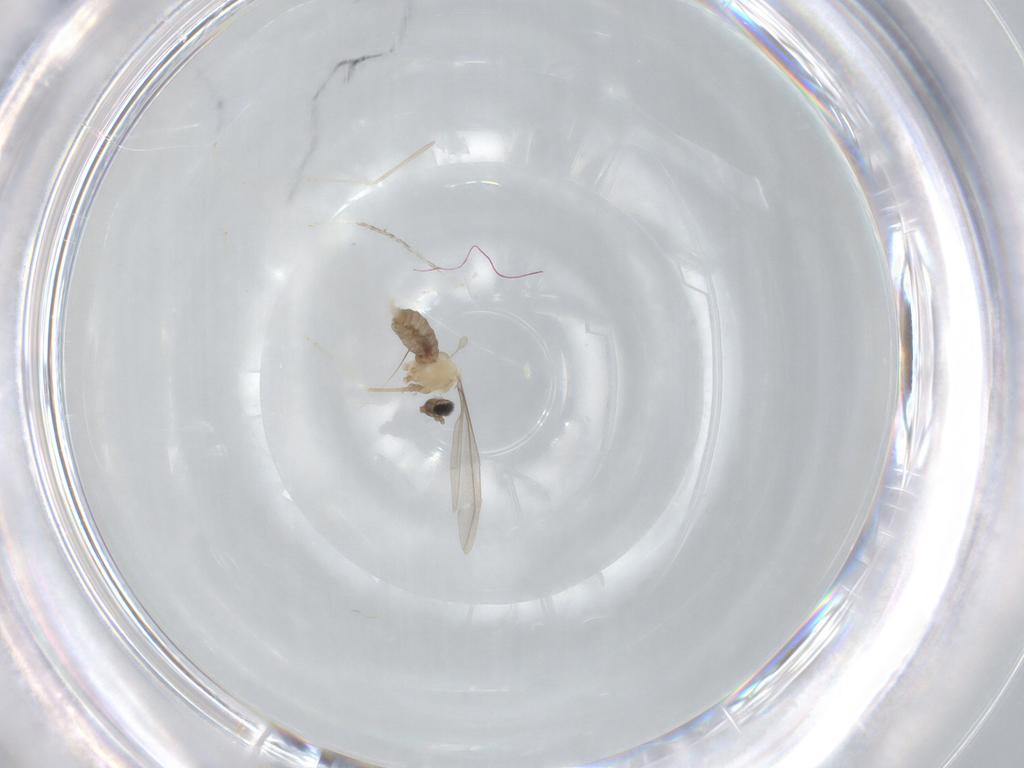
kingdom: Animalia
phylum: Arthropoda
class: Insecta
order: Diptera
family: Cecidomyiidae
